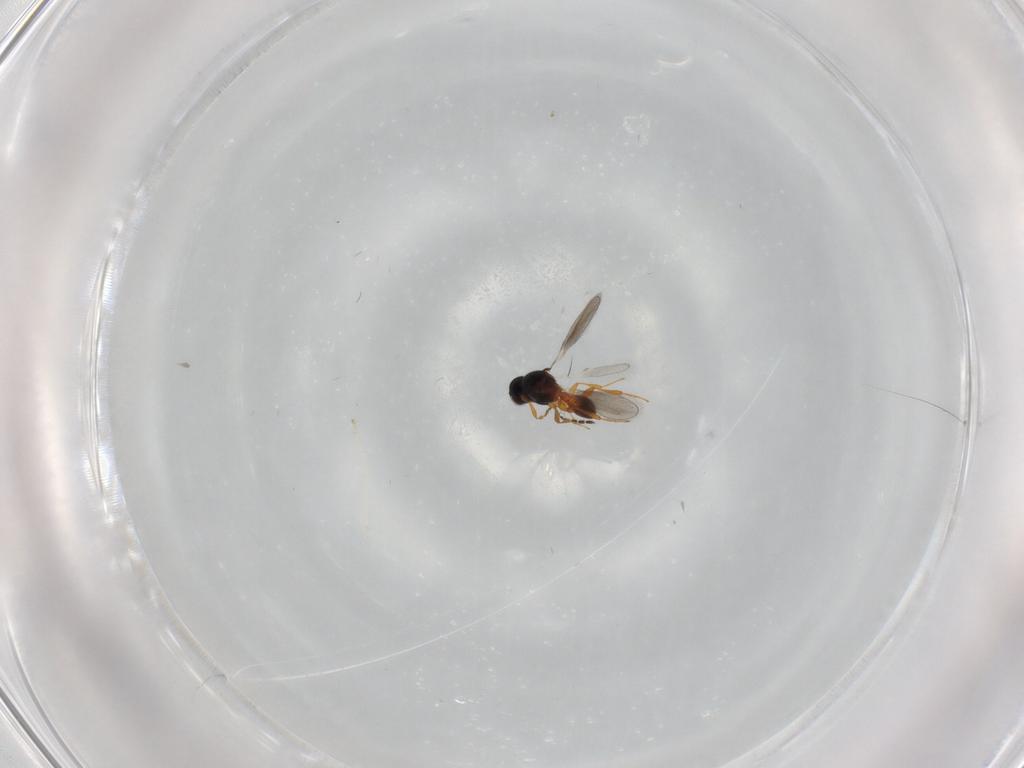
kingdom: Animalia
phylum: Arthropoda
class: Insecta
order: Hymenoptera
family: Platygastridae
